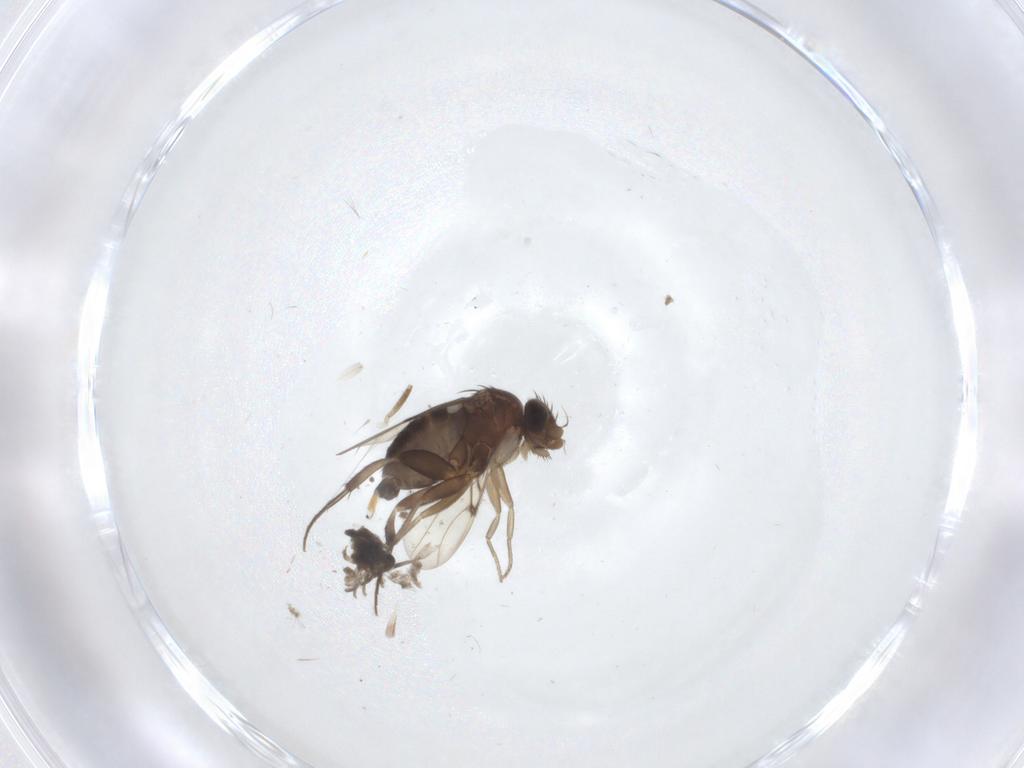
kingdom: Animalia
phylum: Arthropoda
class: Insecta
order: Diptera
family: Phoridae
